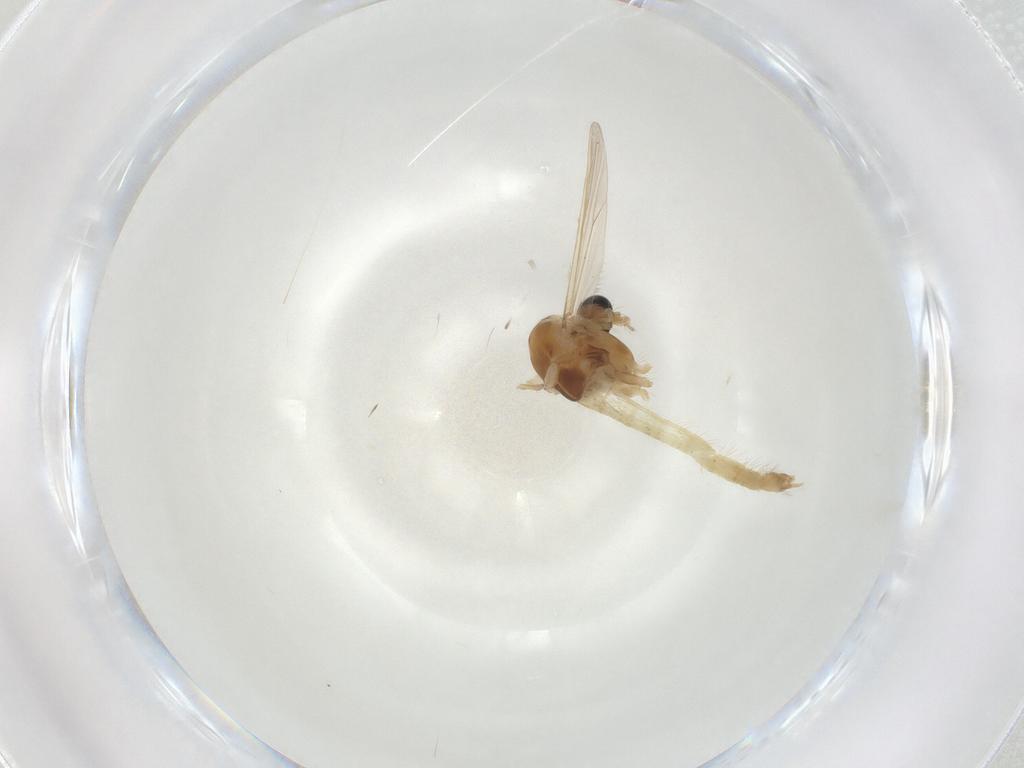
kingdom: Animalia
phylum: Arthropoda
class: Insecta
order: Diptera
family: Chironomidae
